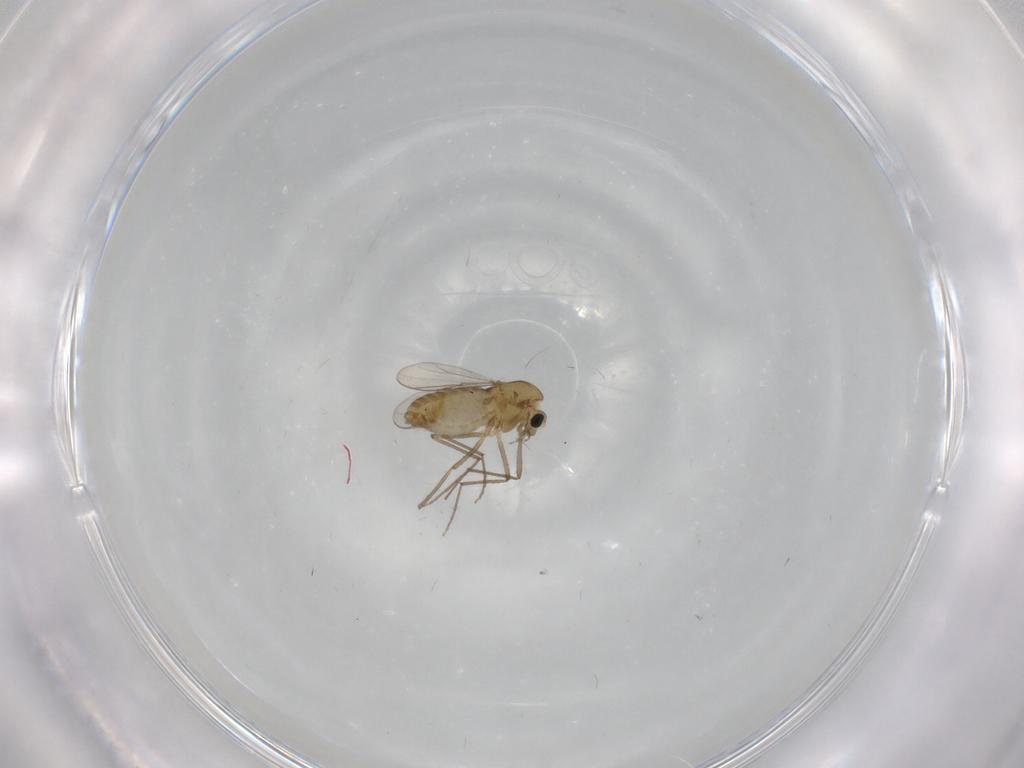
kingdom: Animalia
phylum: Arthropoda
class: Insecta
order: Diptera
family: Chironomidae
